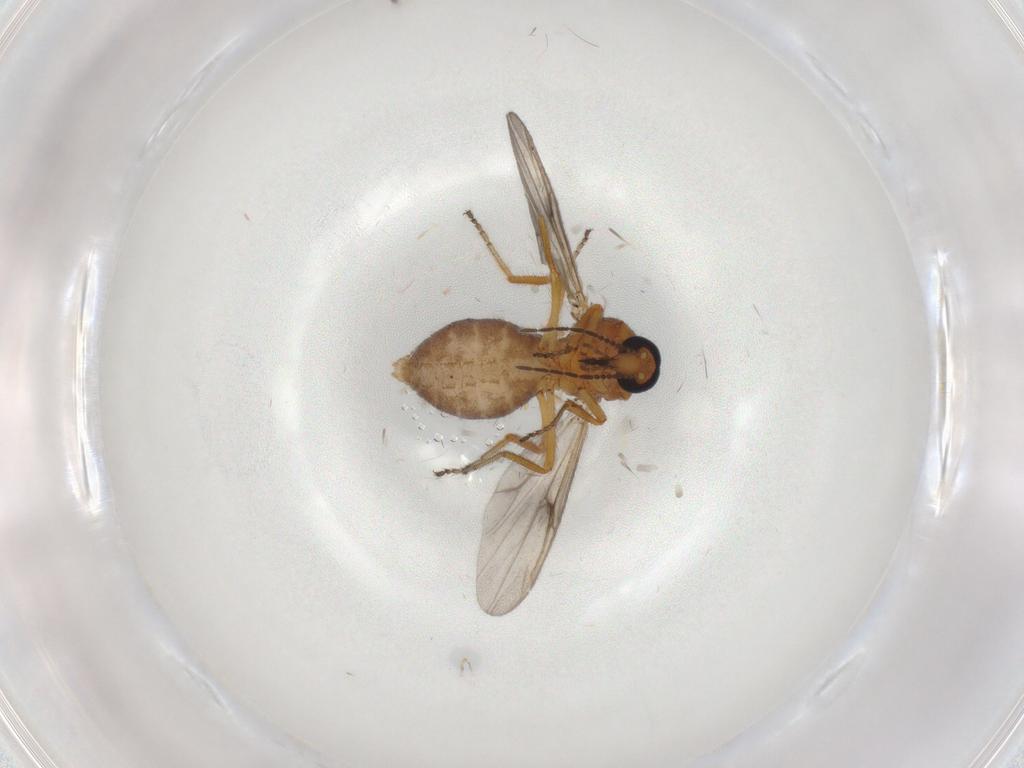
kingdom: Animalia
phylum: Arthropoda
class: Insecta
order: Diptera
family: Ceratopogonidae
